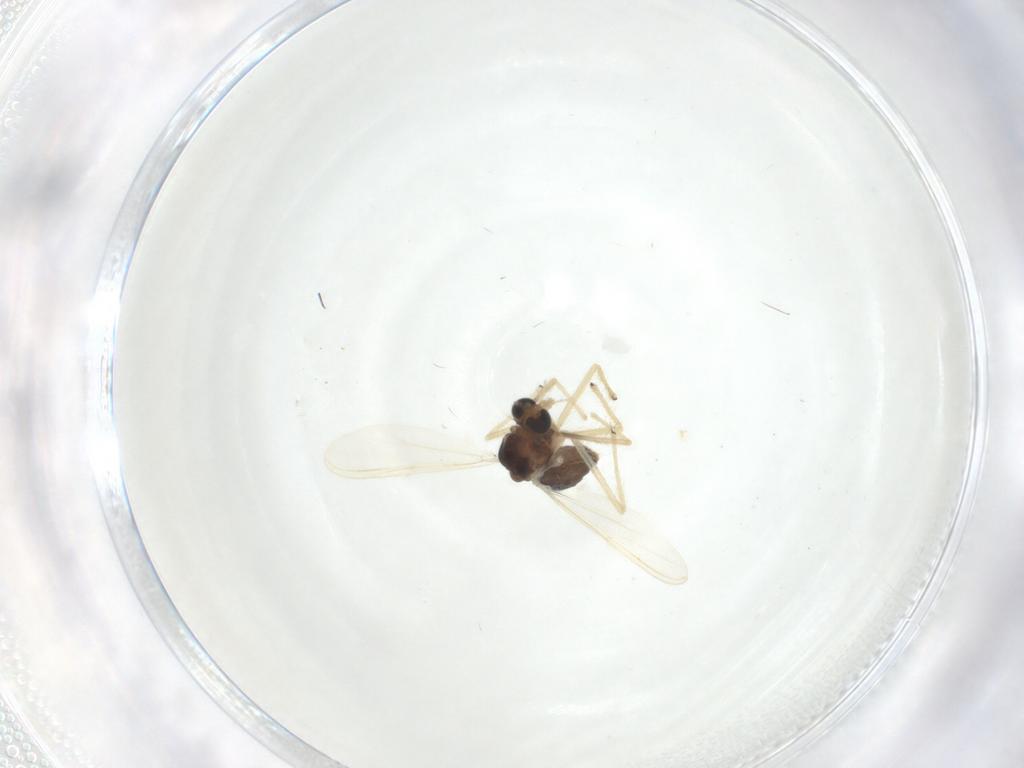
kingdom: Animalia
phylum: Arthropoda
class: Insecta
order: Diptera
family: Chironomidae
